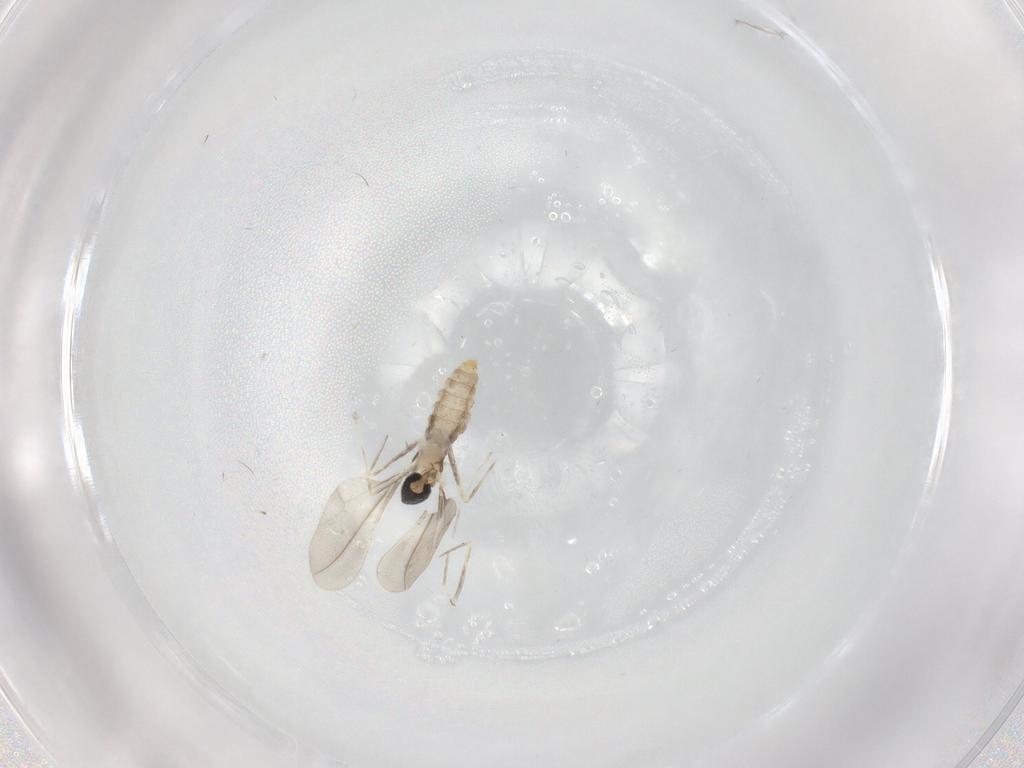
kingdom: Animalia
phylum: Arthropoda
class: Insecta
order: Diptera
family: Cecidomyiidae
